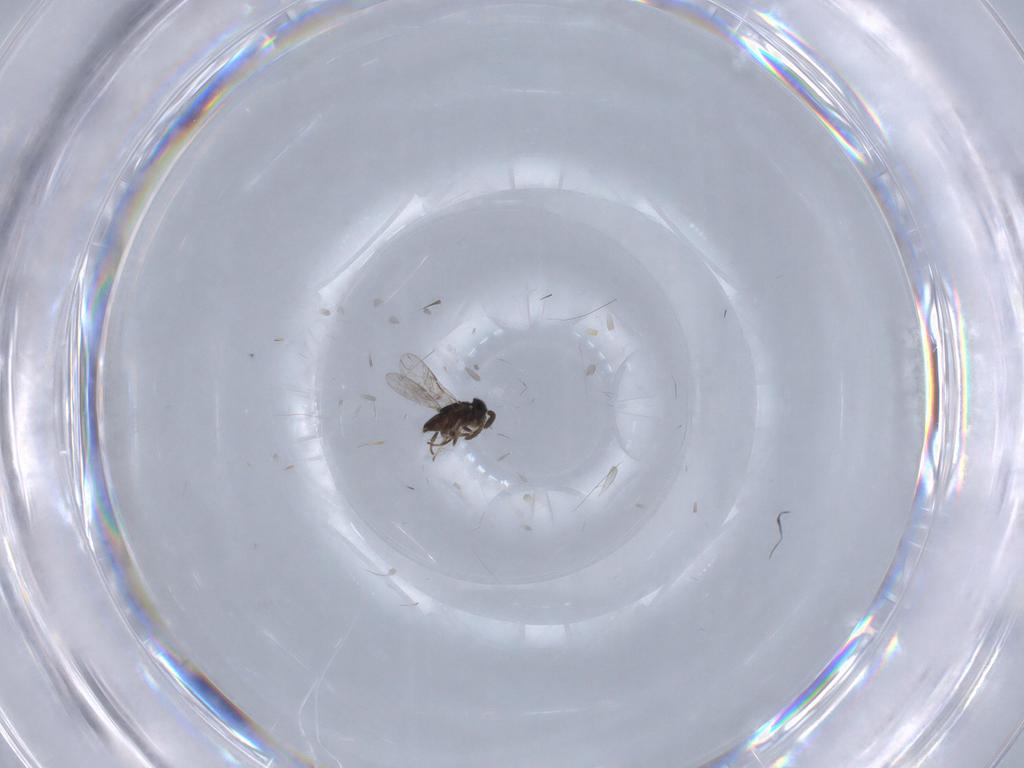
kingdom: Animalia
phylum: Arthropoda
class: Insecta
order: Hymenoptera
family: Encyrtidae
